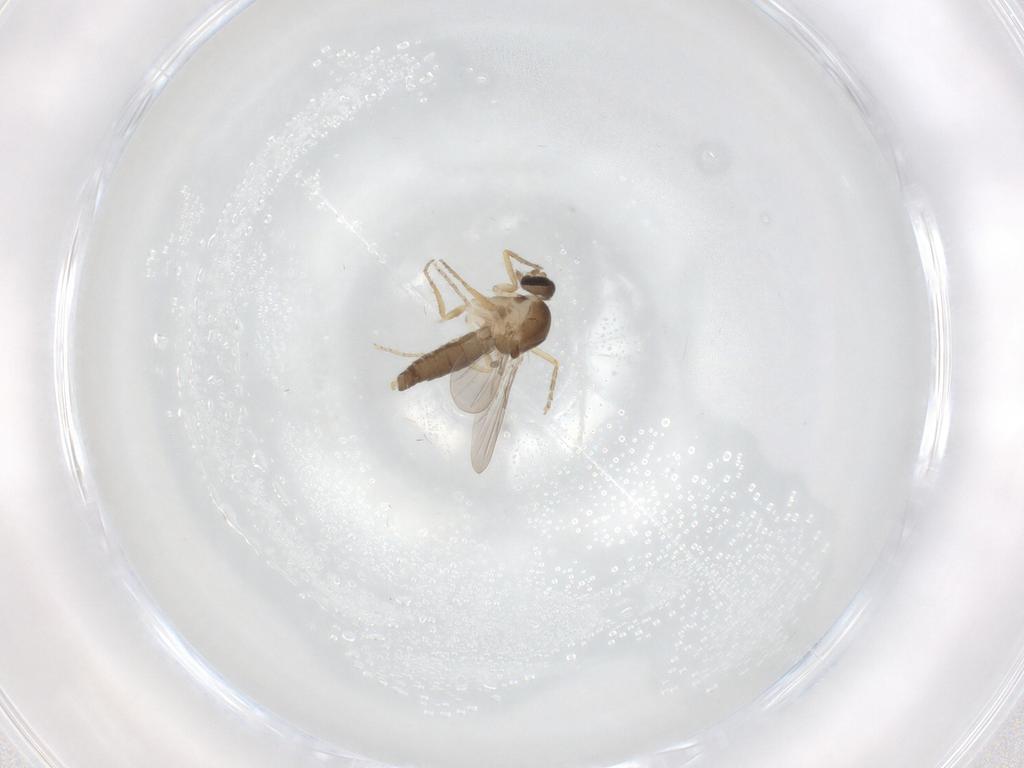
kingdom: Animalia
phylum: Arthropoda
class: Insecta
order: Diptera
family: Ceratopogonidae
